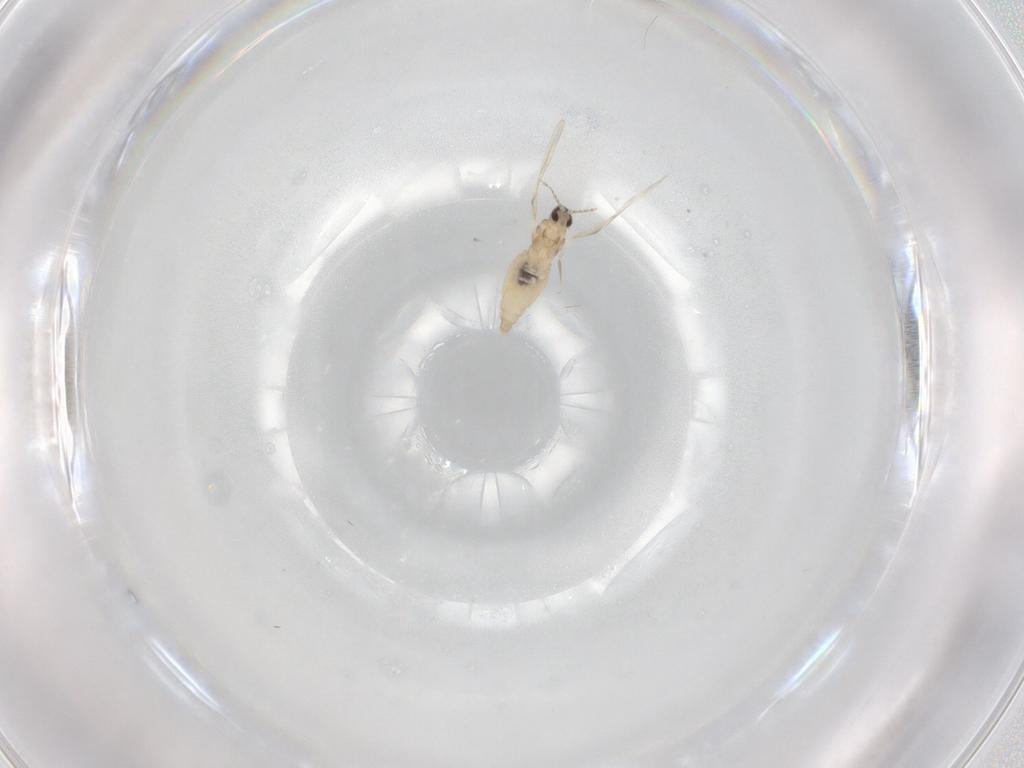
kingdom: Animalia
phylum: Arthropoda
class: Insecta
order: Diptera
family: Cecidomyiidae
